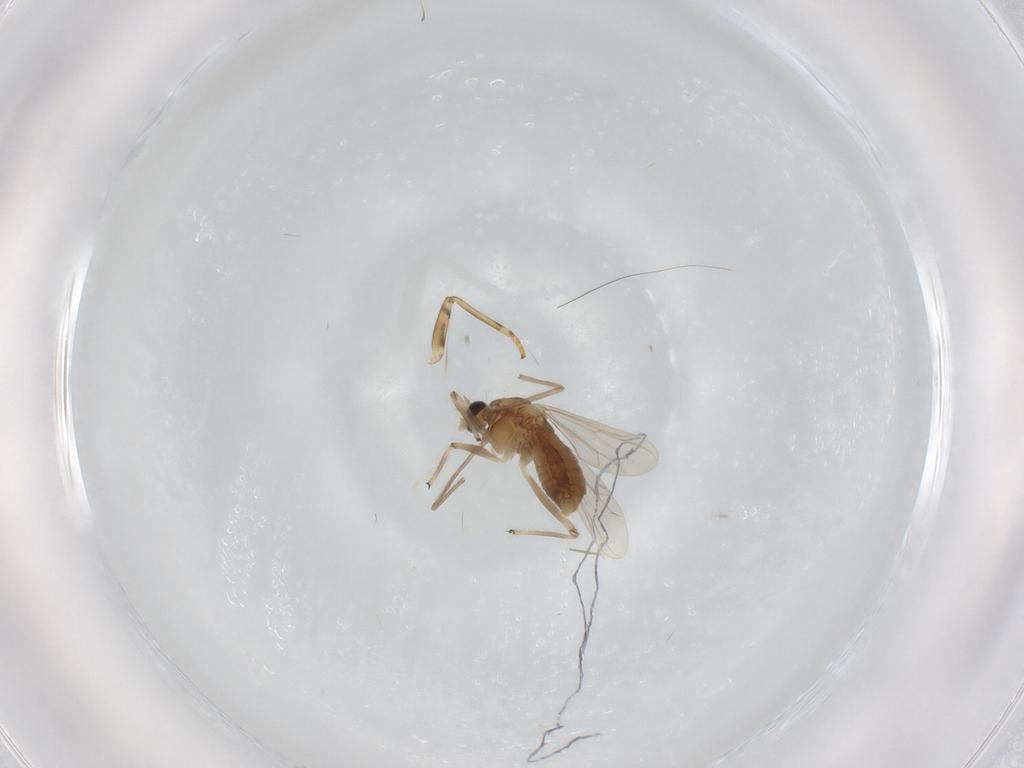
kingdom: Animalia
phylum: Arthropoda
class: Insecta
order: Diptera
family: Chironomidae
